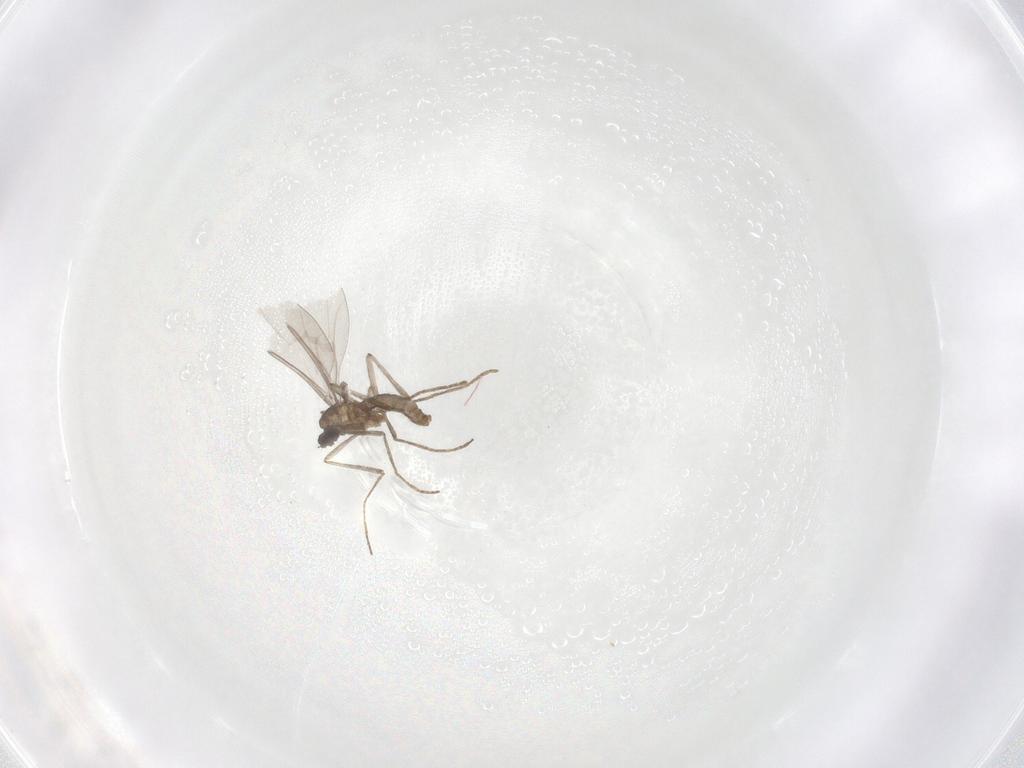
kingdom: Animalia
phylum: Arthropoda
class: Insecta
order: Diptera
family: Cecidomyiidae
